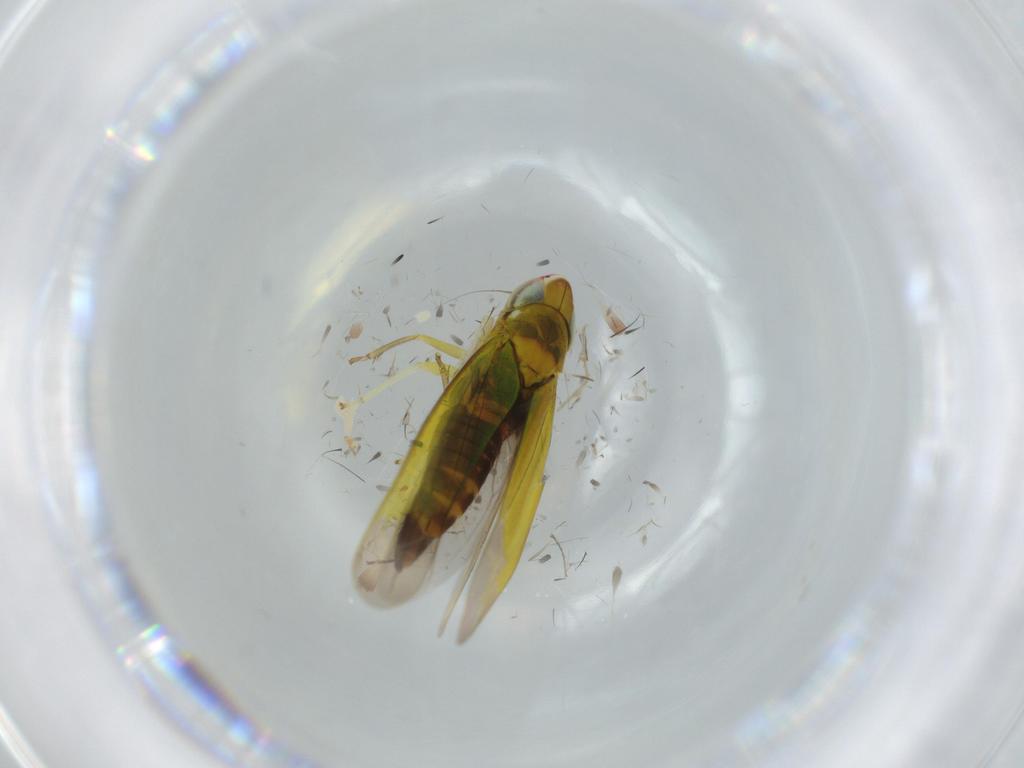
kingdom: Animalia
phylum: Arthropoda
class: Insecta
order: Hemiptera
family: Cicadellidae
